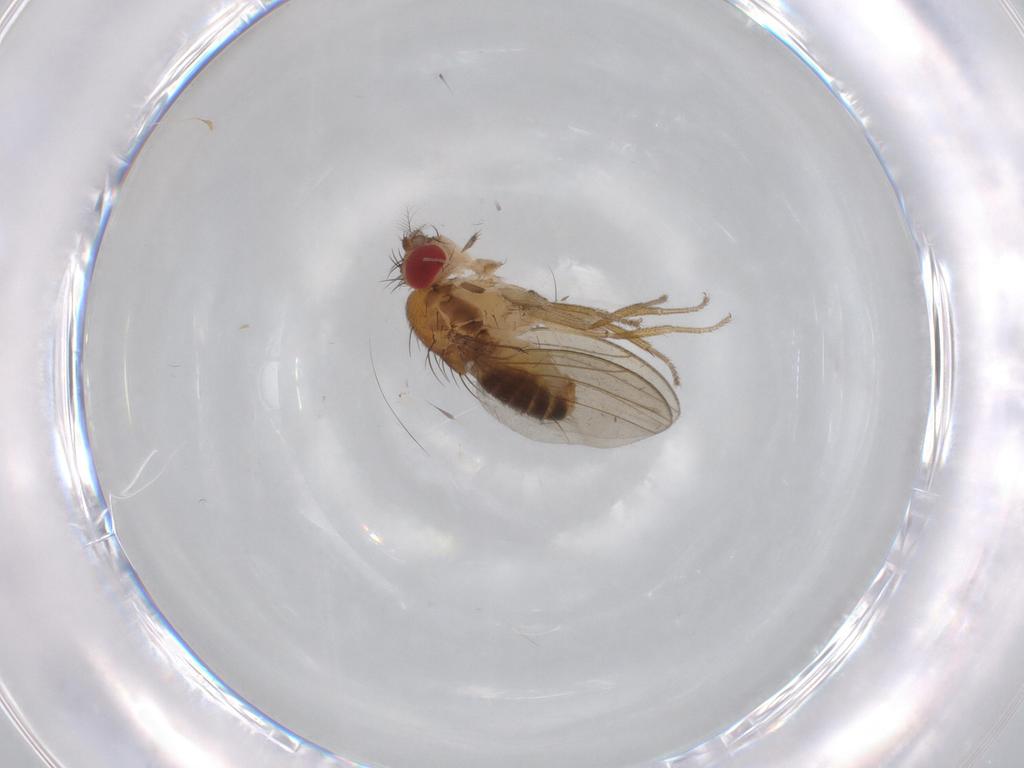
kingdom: Animalia
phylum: Arthropoda
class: Insecta
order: Diptera
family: Drosophilidae
